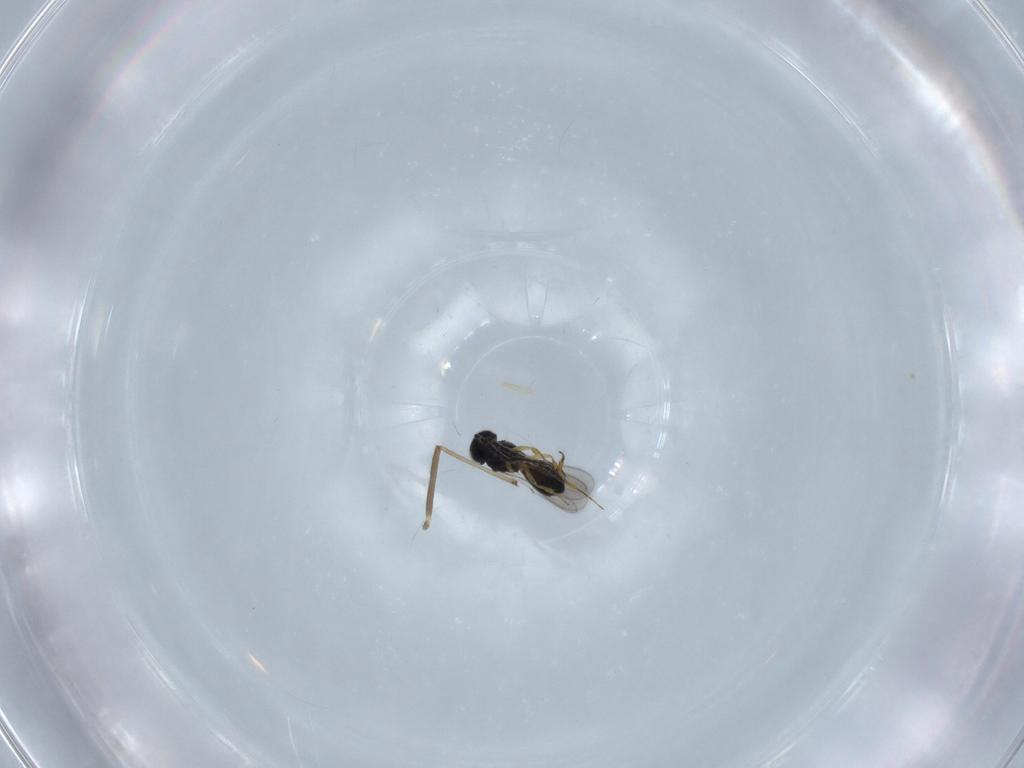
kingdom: Animalia
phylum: Arthropoda
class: Insecta
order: Hymenoptera
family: Scelionidae
